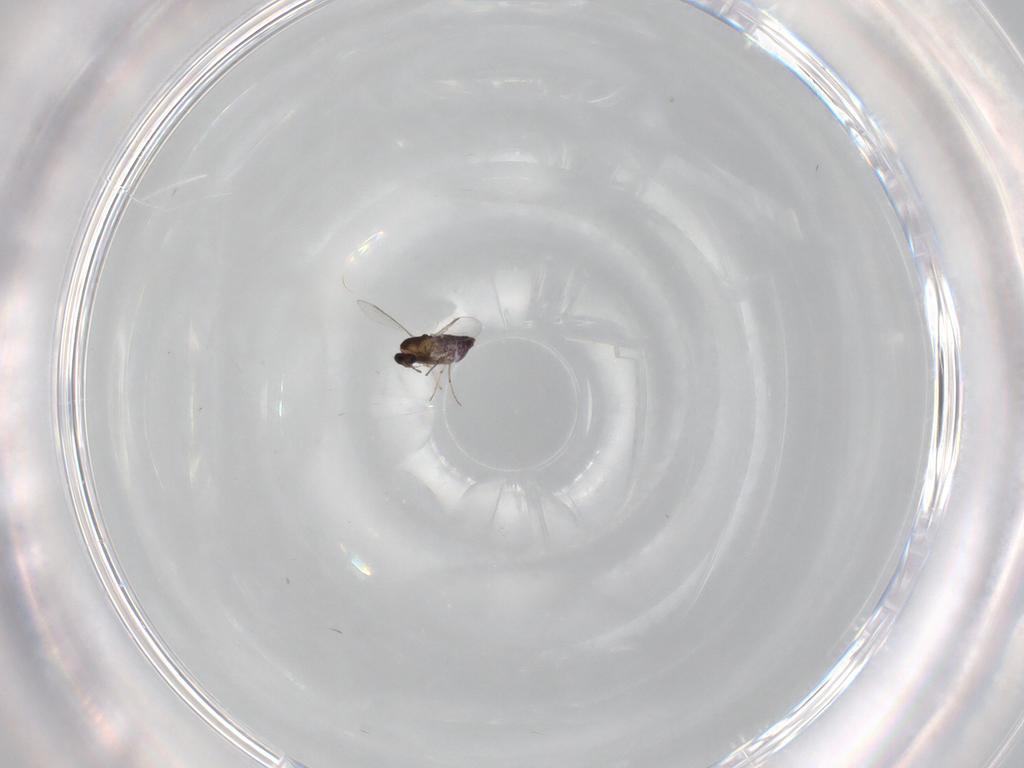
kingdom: Animalia
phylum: Arthropoda
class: Insecta
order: Diptera
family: Chironomidae
